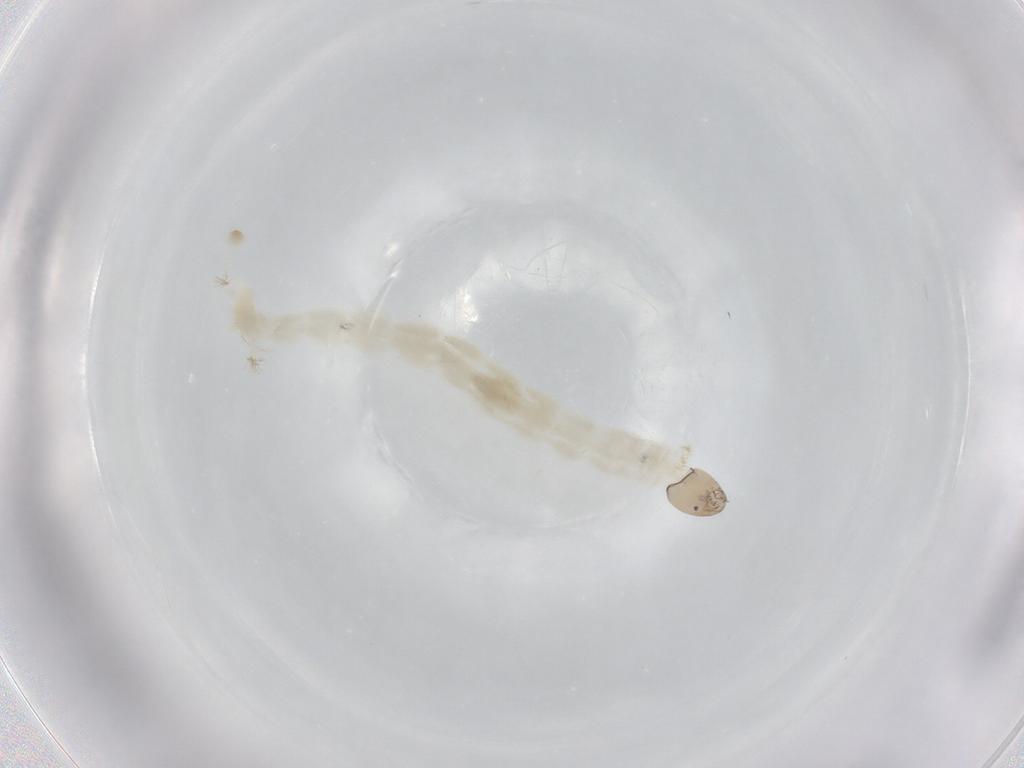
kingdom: Animalia
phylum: Arthropoda
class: Insecta
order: Diptera
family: Chironomidae
